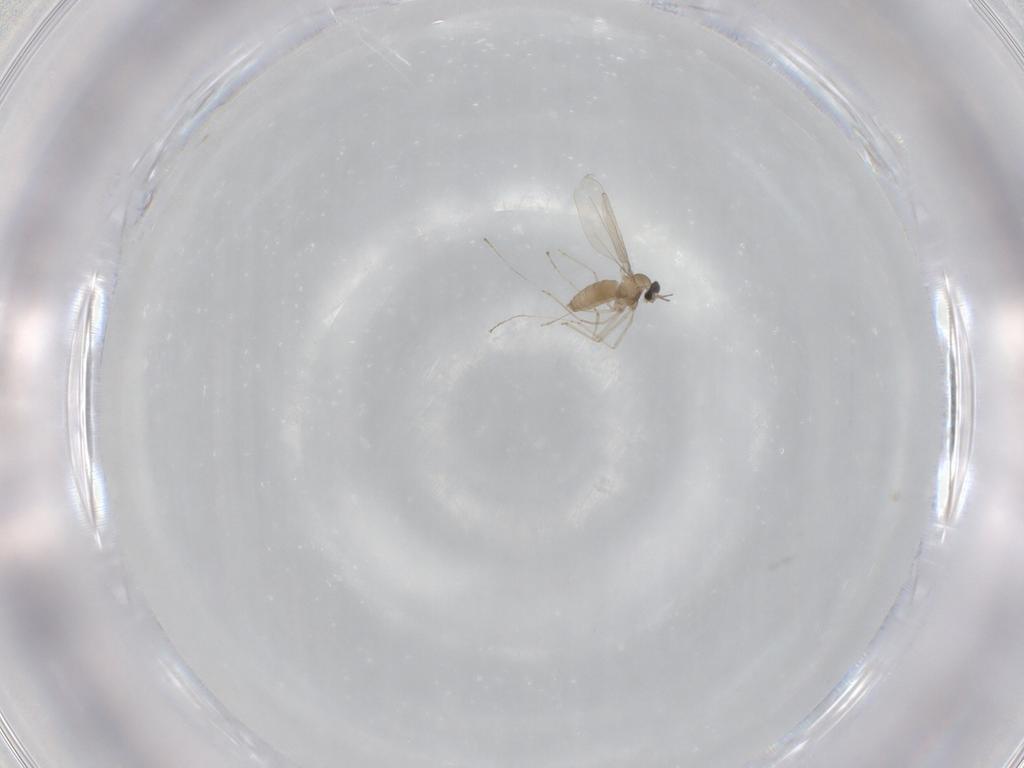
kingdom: Animalia
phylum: Arthropoda
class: Insecta
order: Diptera
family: Cecidomyiidae
